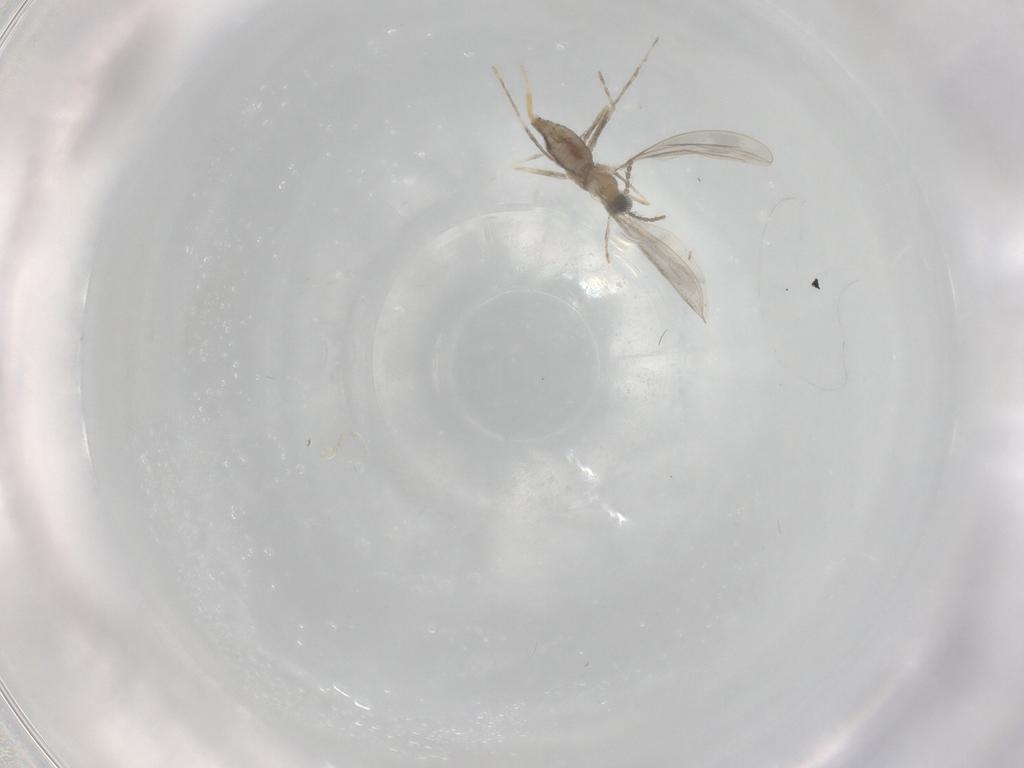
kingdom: Animalia
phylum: Arthropoda
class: Insecta
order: Diptera
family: Cecidomyiidae
